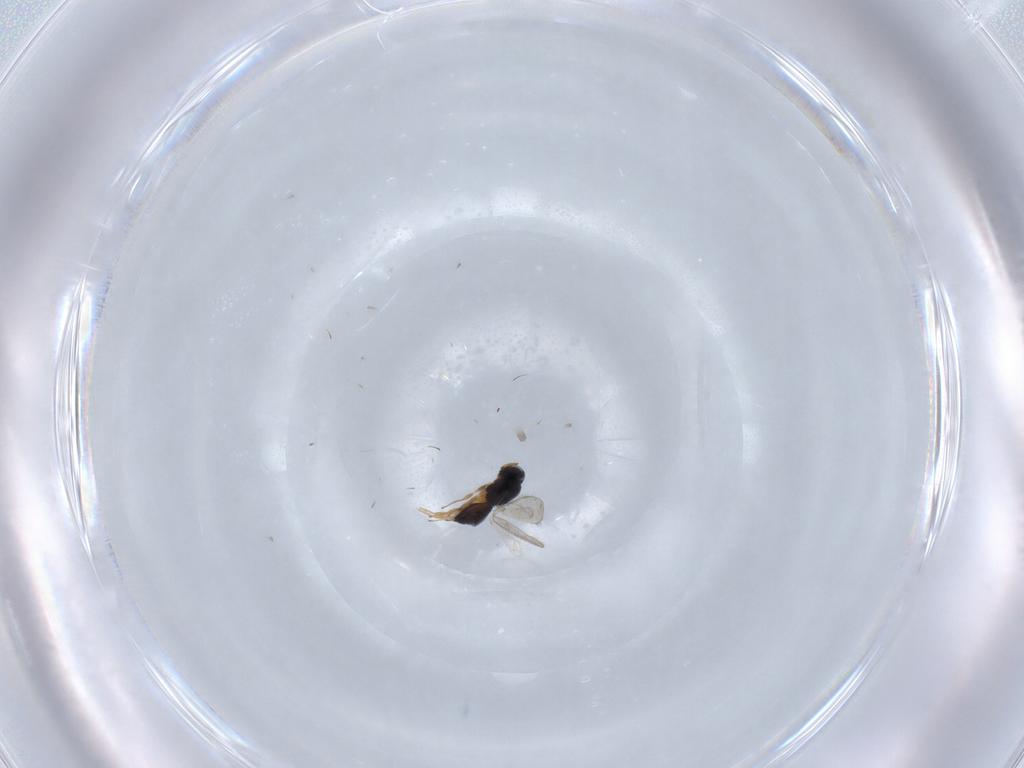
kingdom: Animalia
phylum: Arthropoda
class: Insecta
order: Hymenoptera
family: Scelionidae
